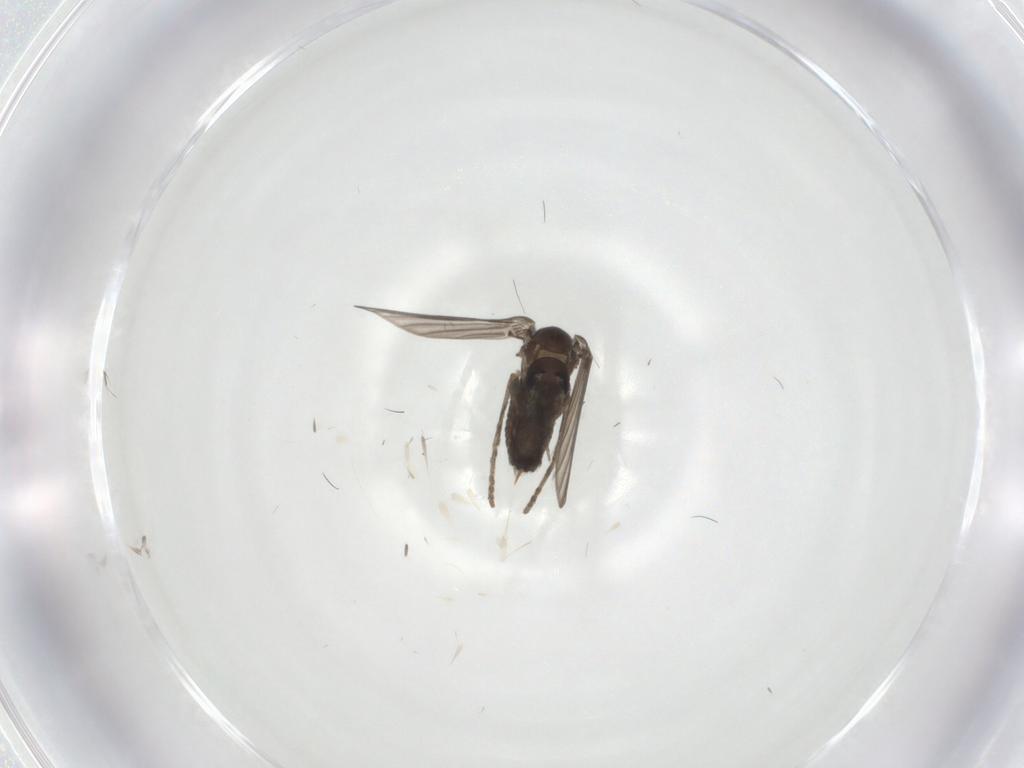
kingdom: Animalia
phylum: Arthropoda
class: Insecta
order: Diptera
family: Psychodidae
